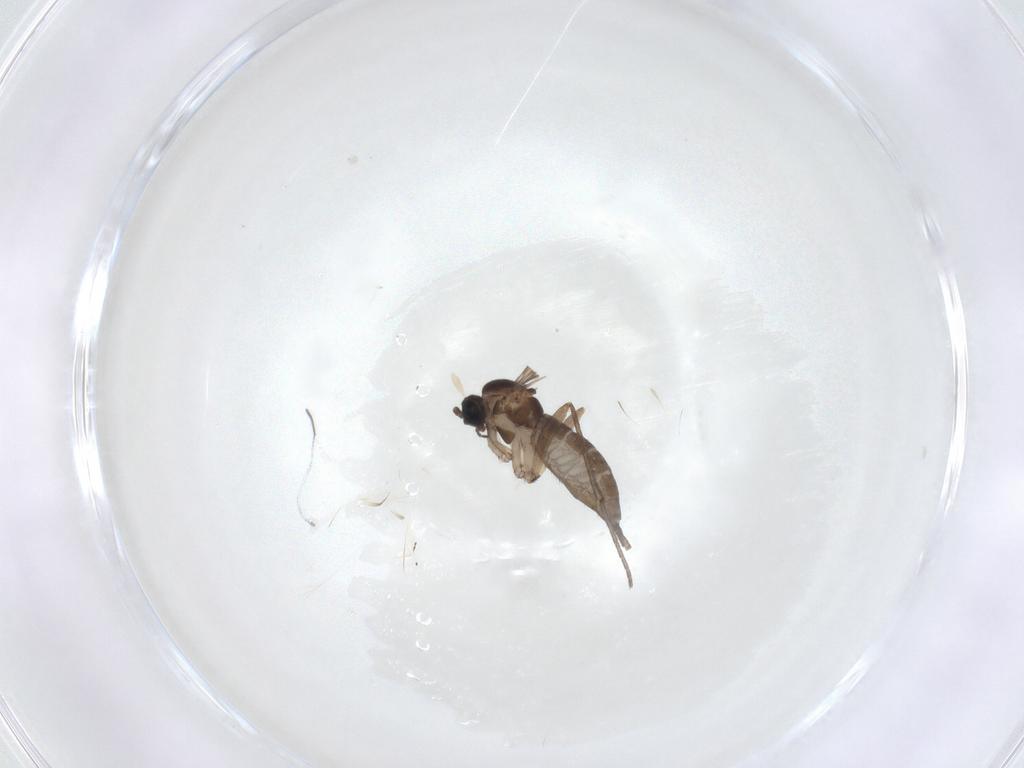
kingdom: Animalia
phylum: Arthropoda
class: Insecta
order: Diptera
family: Sciaridae
